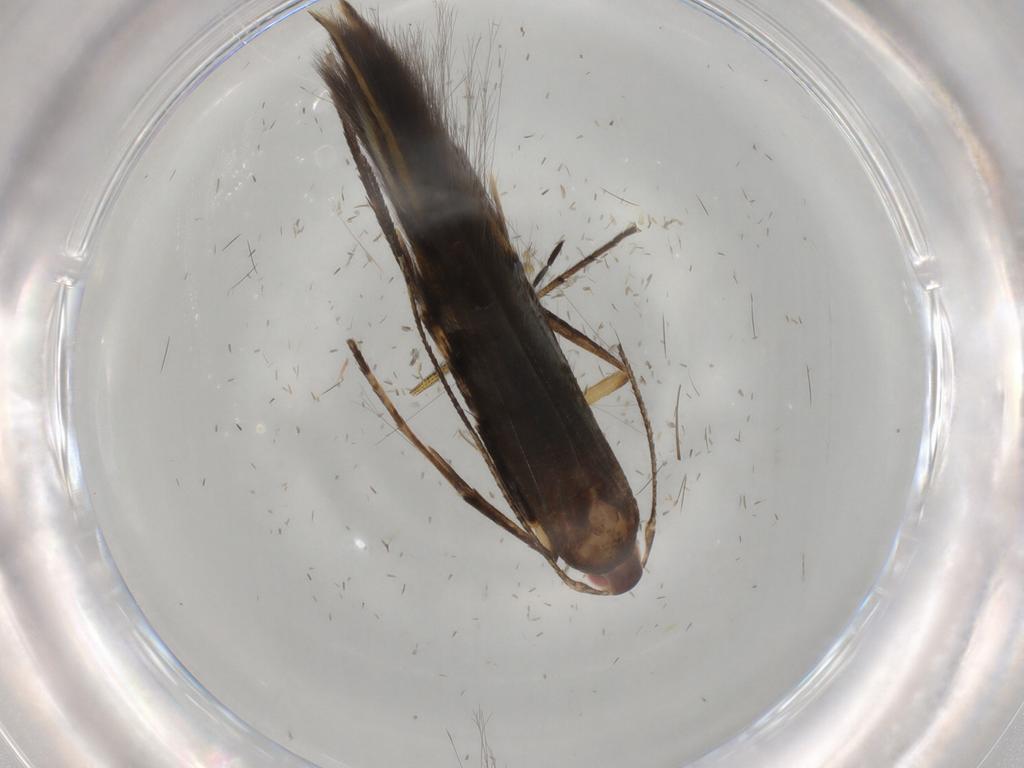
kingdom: Animalia
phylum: Arthropoda
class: Insecta
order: Lepidoptera
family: Cosmopterigidae
